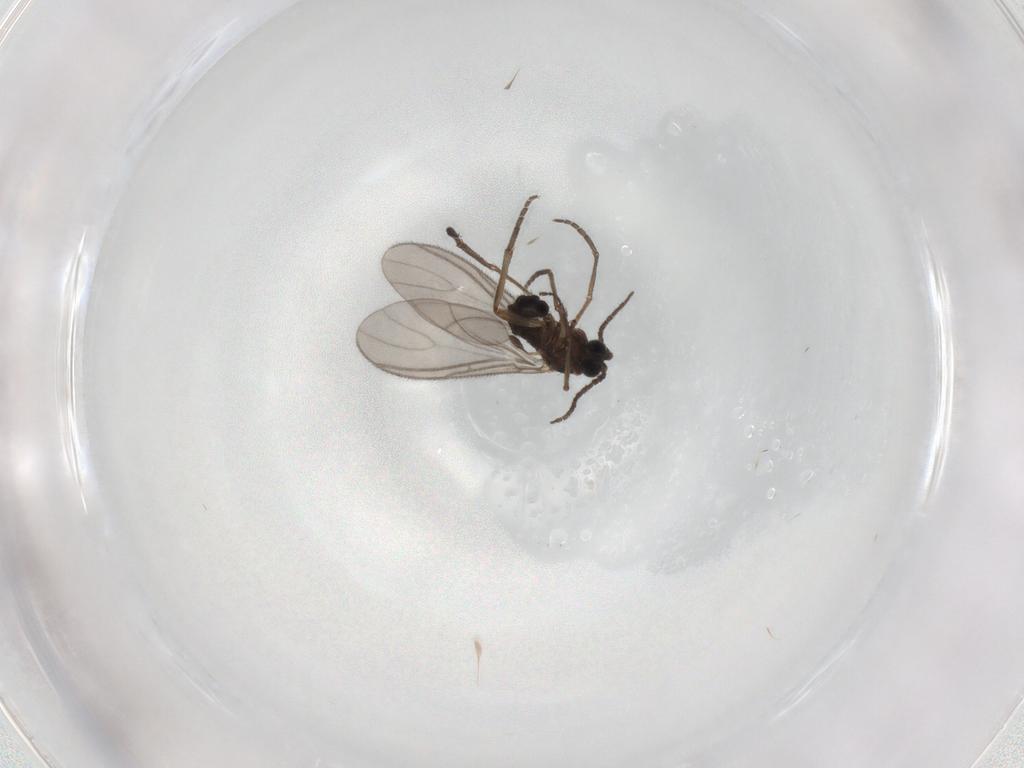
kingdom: Animalia
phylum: Arthropoda
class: Insecta
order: Diptera
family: Sciaridae
